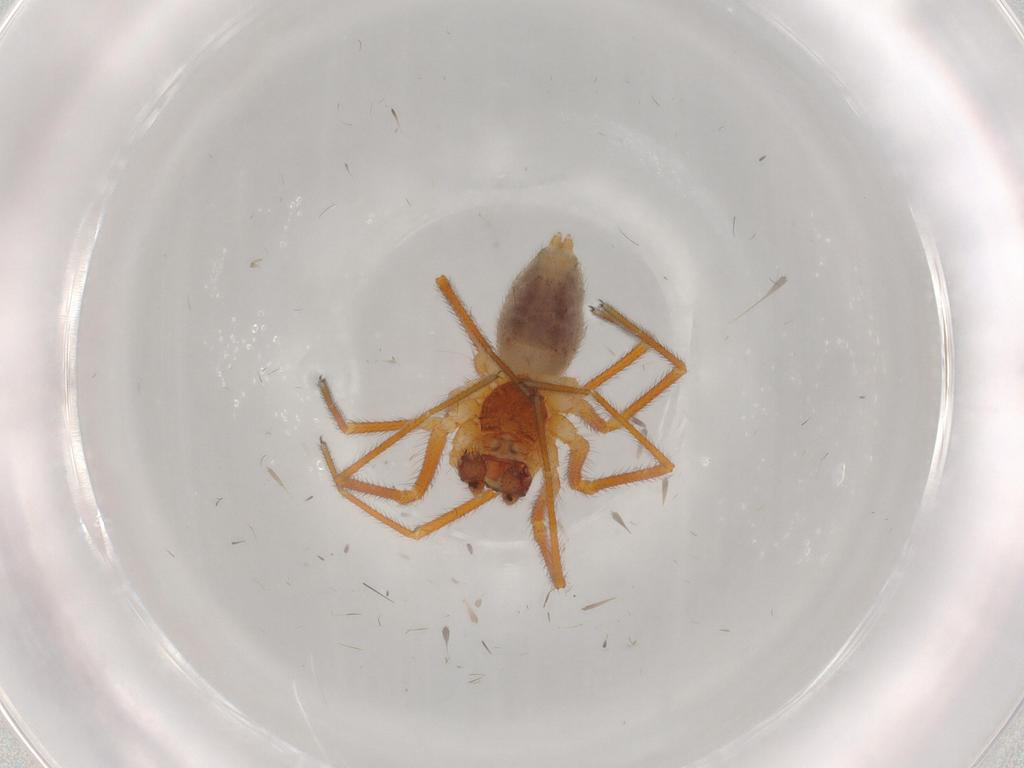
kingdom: Animalia
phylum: Arthropoda
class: Arachnida
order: Araneae
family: Linyphiidae
